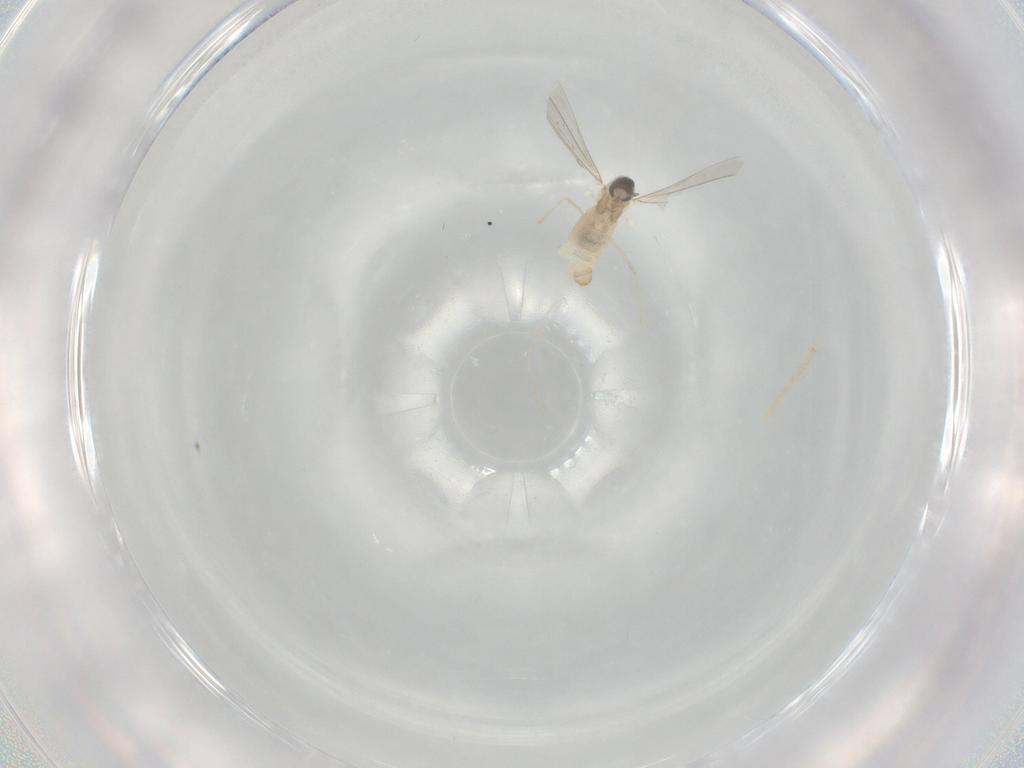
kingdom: Animalia
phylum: Arthropoda
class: Insecta
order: Diptera
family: Cecidomyiidae
